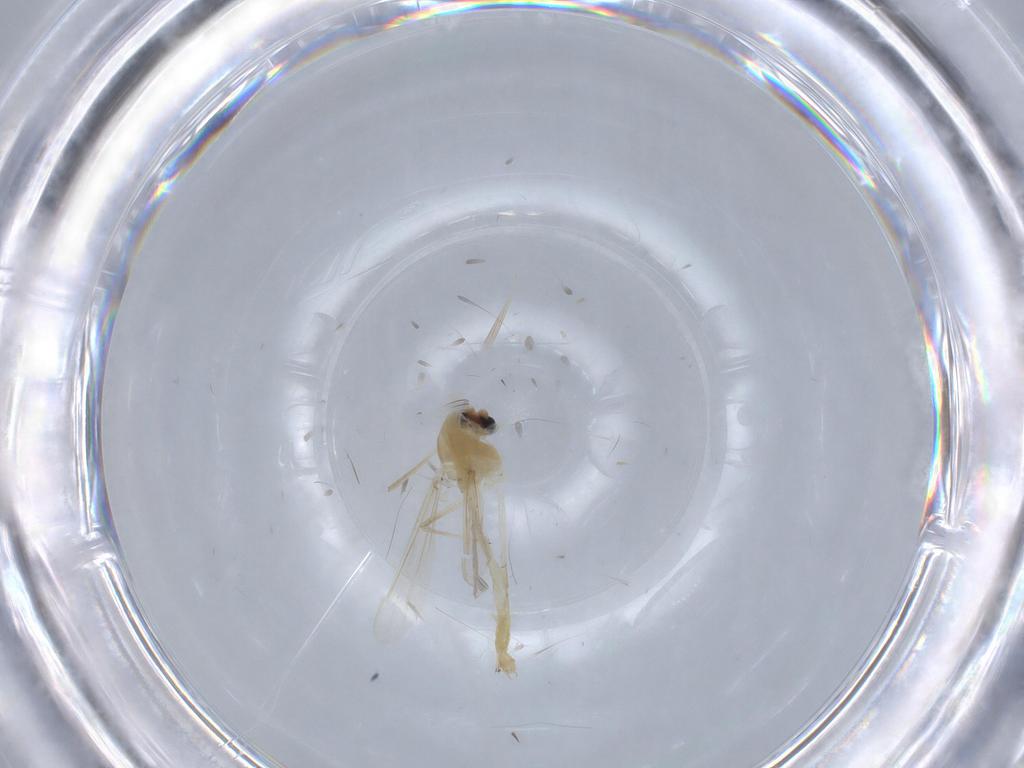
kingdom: Animalia
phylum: Arthropoda
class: Insecta
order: Diptera
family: Chironomidae
